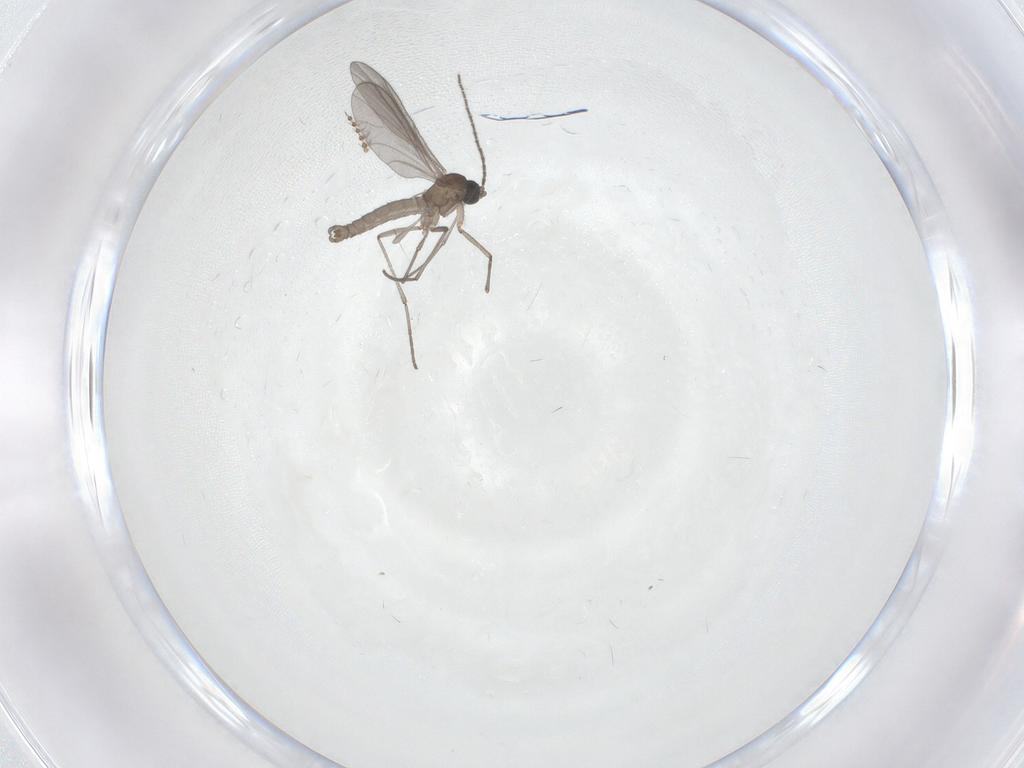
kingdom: Animalia
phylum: Arthropoda
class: Insecta
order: Diptera
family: Sciaridae
